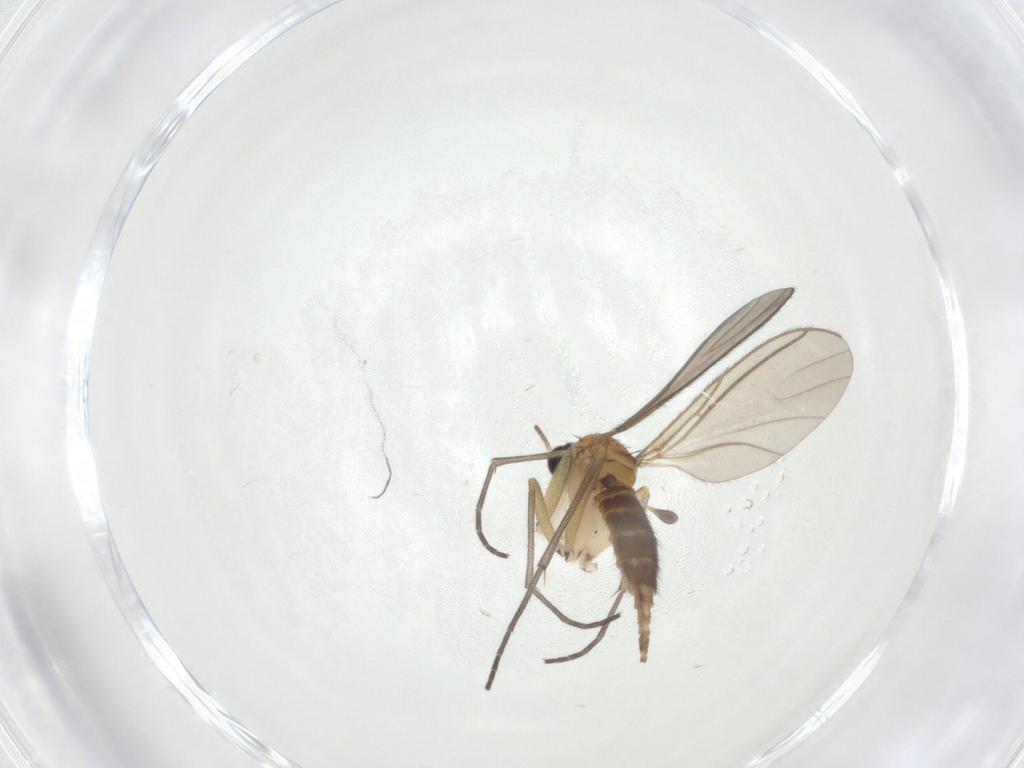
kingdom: Animalia
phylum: Arthropoda
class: Insecta
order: Diptera
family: Sciaridae
